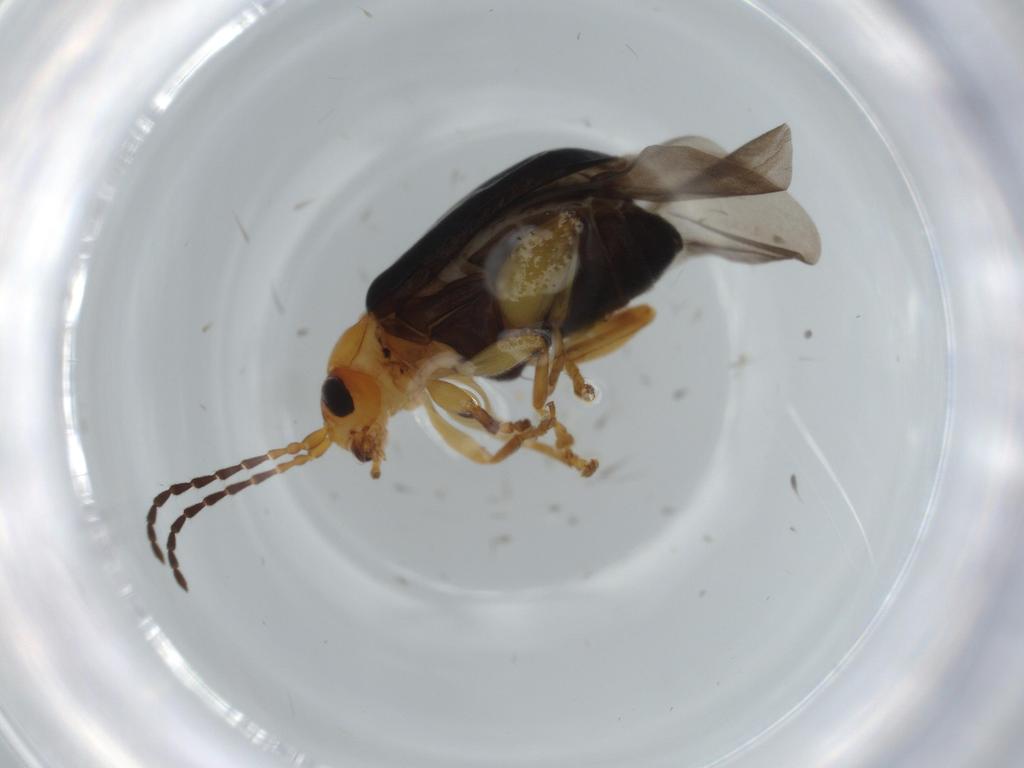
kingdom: Animalia
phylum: Arthropoda
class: Insecta
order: Coleoptera
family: Chrysomelidae
